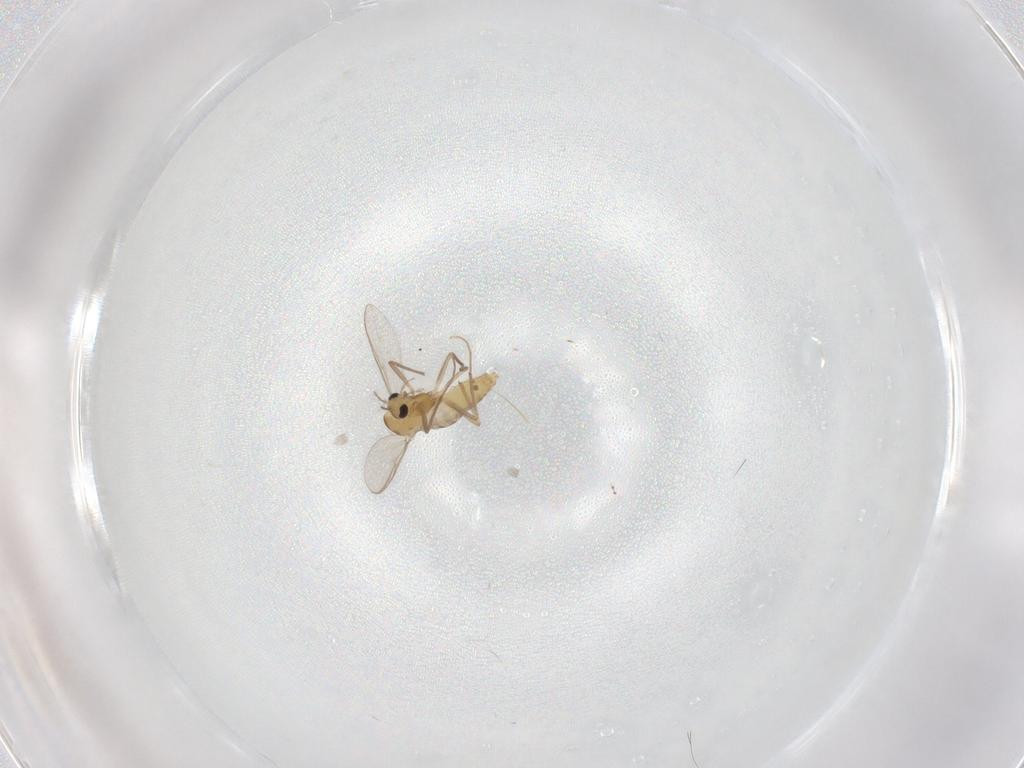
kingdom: Animalia
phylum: Arthropoda
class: Insecta
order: Diptera
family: Chironomidae
